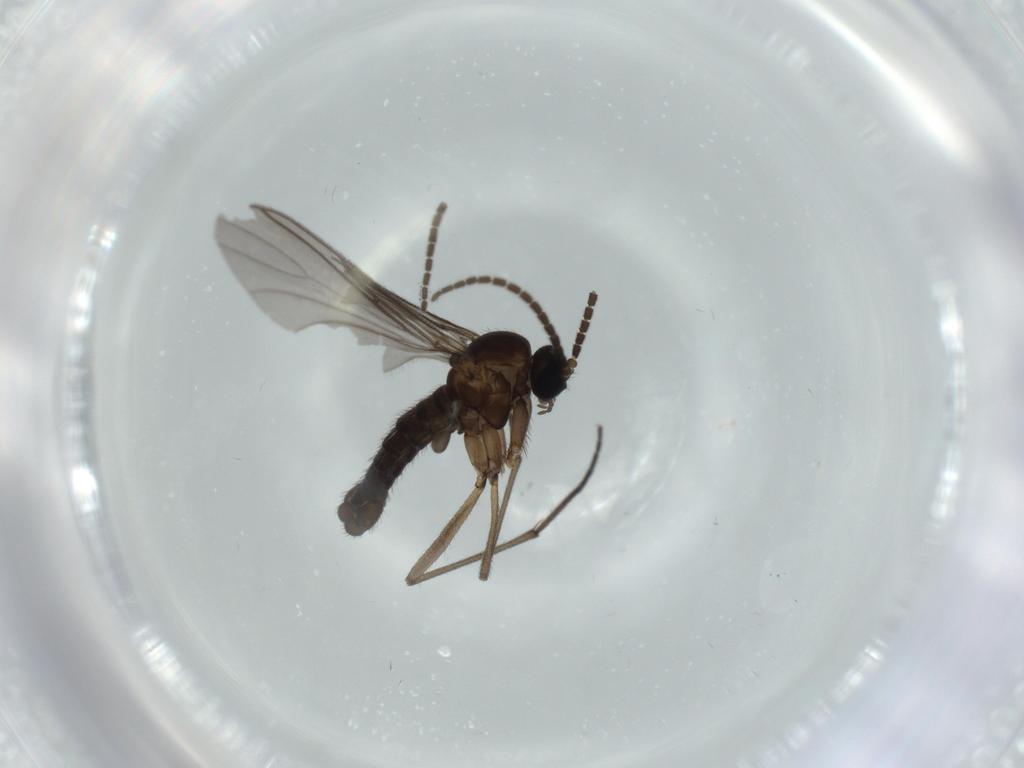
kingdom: Animalia
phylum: Arthropoda
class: Insecta
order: Diptera
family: Sciaridae
